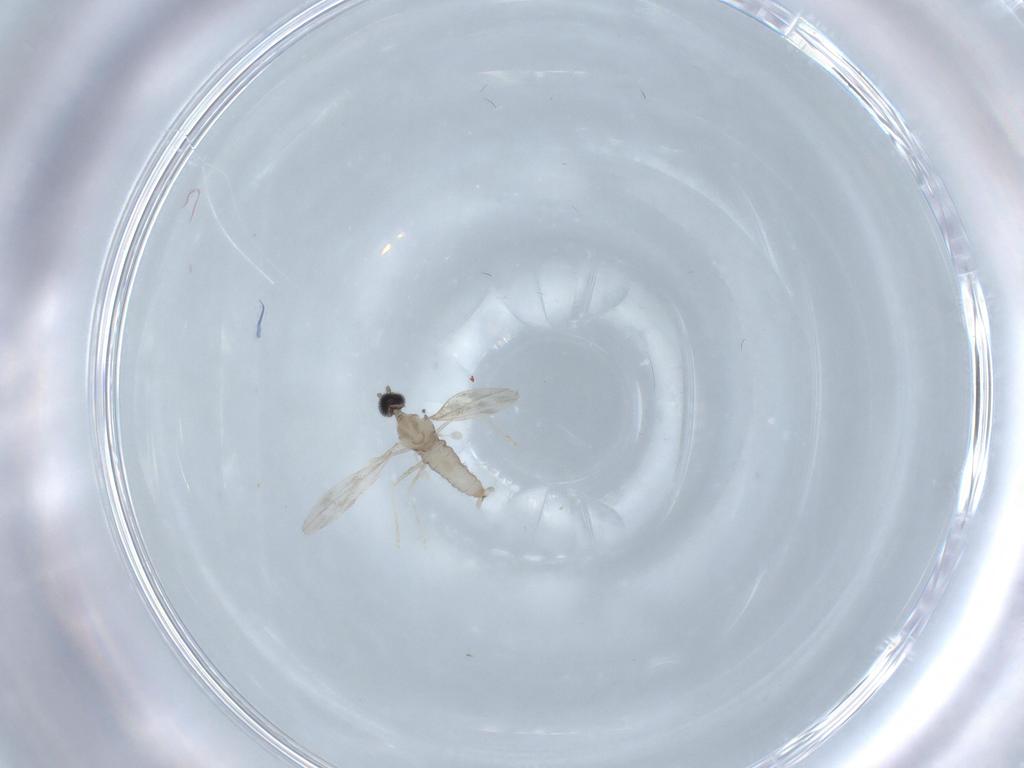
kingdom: Animalia
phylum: Arthropoda
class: Insecta
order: Diptera
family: Cecidomyiidae
